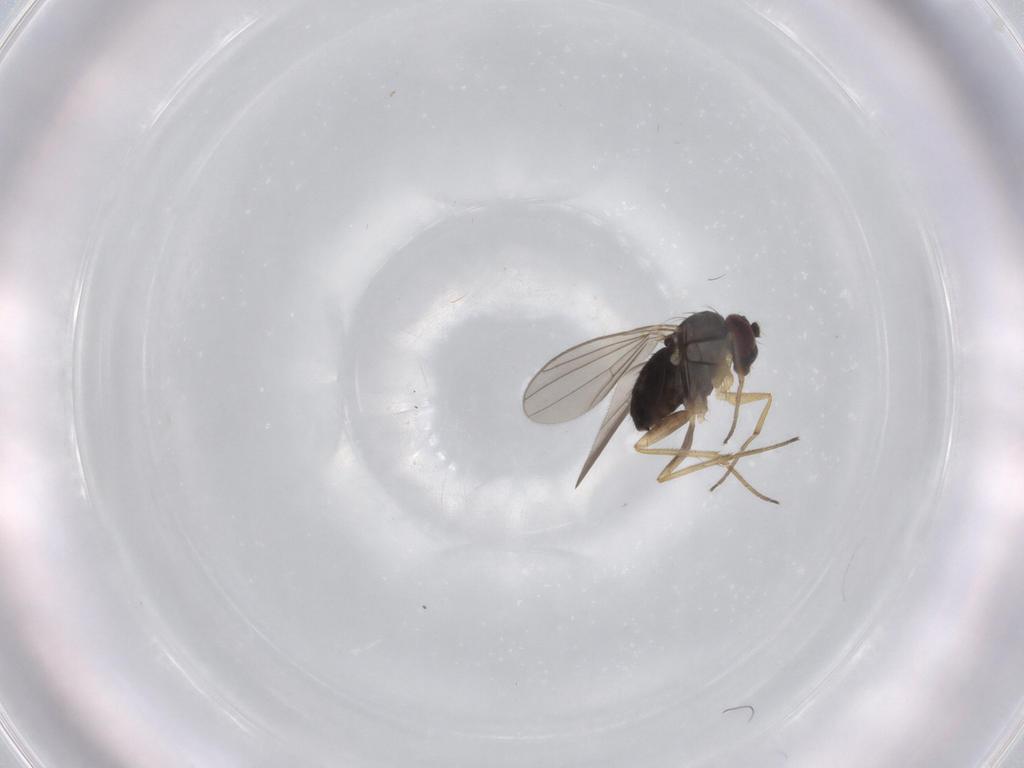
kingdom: Animalia
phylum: Arthropoda
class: Insecta
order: Diptera
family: Dolichopodidae
